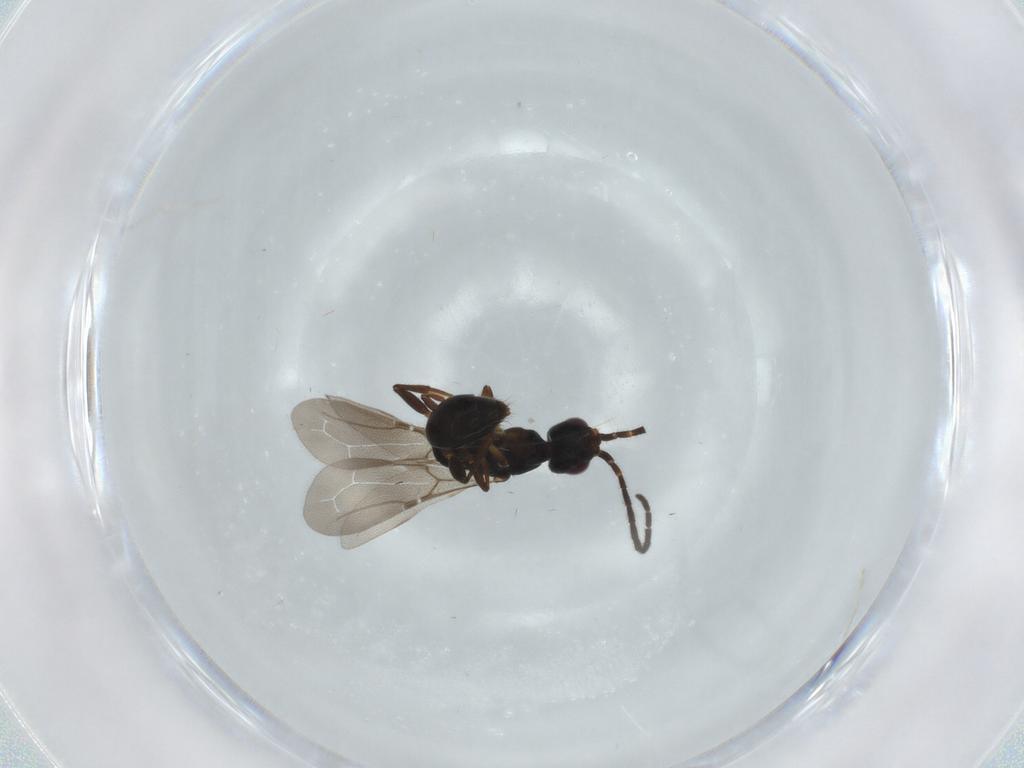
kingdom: Animalia
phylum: Arthropoda
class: Insecta
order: Hymenoptera
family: Bethylidae
